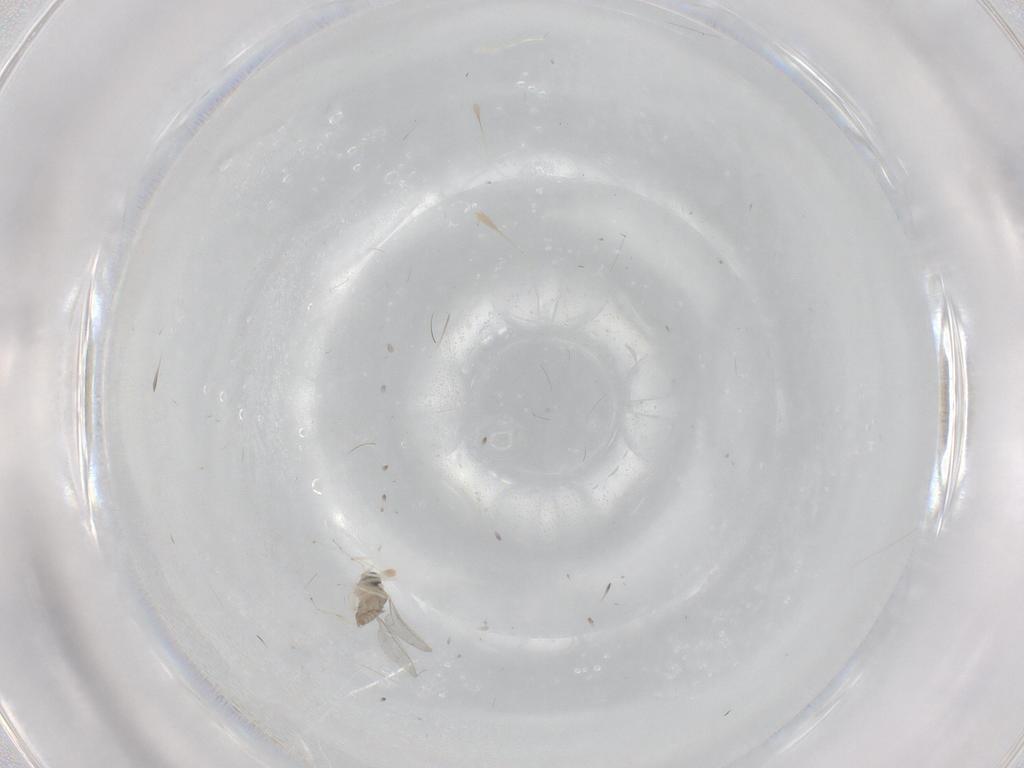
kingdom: Animalia
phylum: Arthropoda
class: Insecta
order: Diptera
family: Cecidomyiidae
